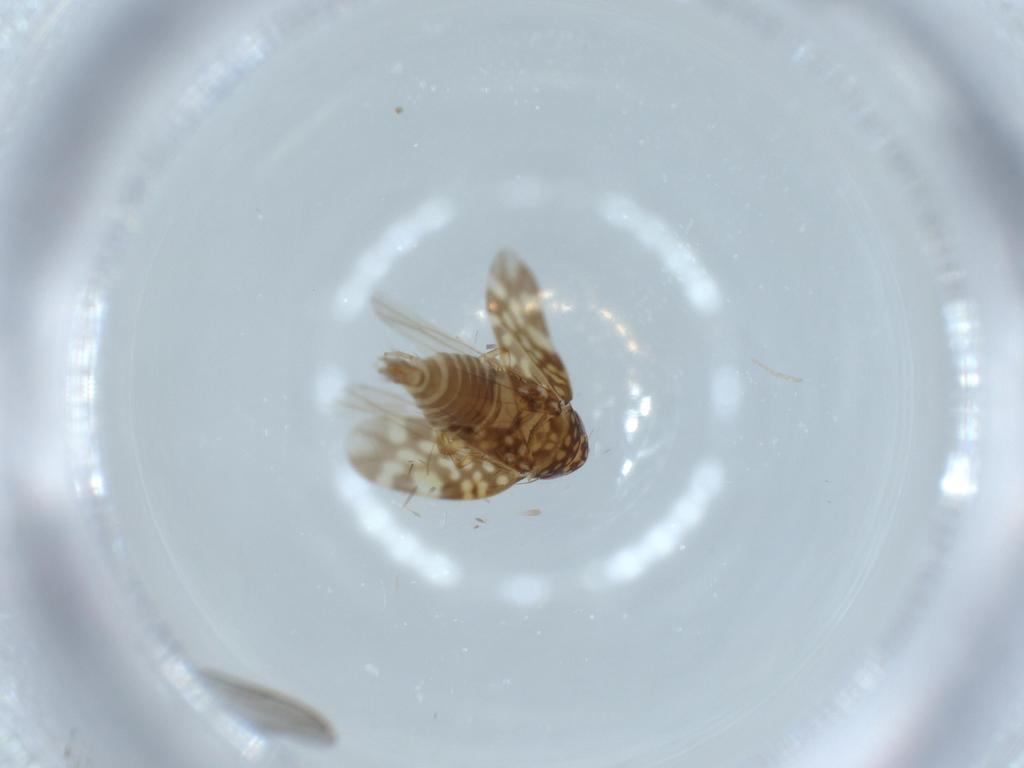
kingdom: Animalia
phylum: Arthropoda
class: Insecta
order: Hemiptera
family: Cicadellidae
